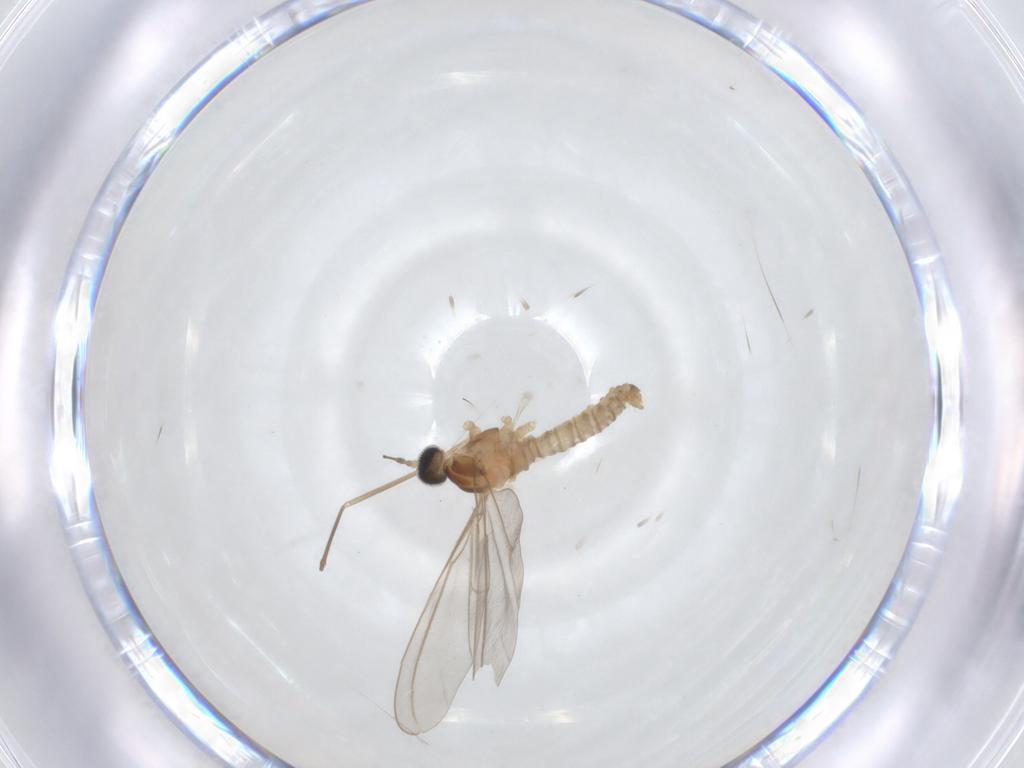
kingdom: Animalia
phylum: Arthropoda
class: Insecta
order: Diptera
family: Cecidomyiidae
